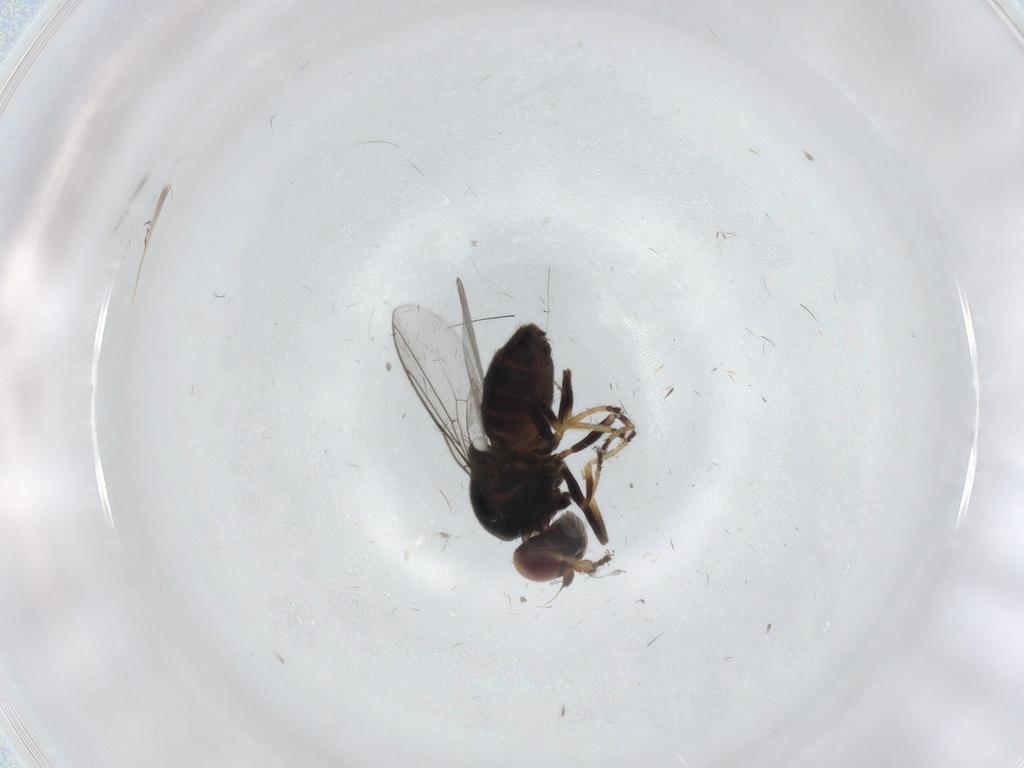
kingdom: Animalia
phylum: Arthropoda
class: Insecta
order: Diptera
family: Chloropidae
